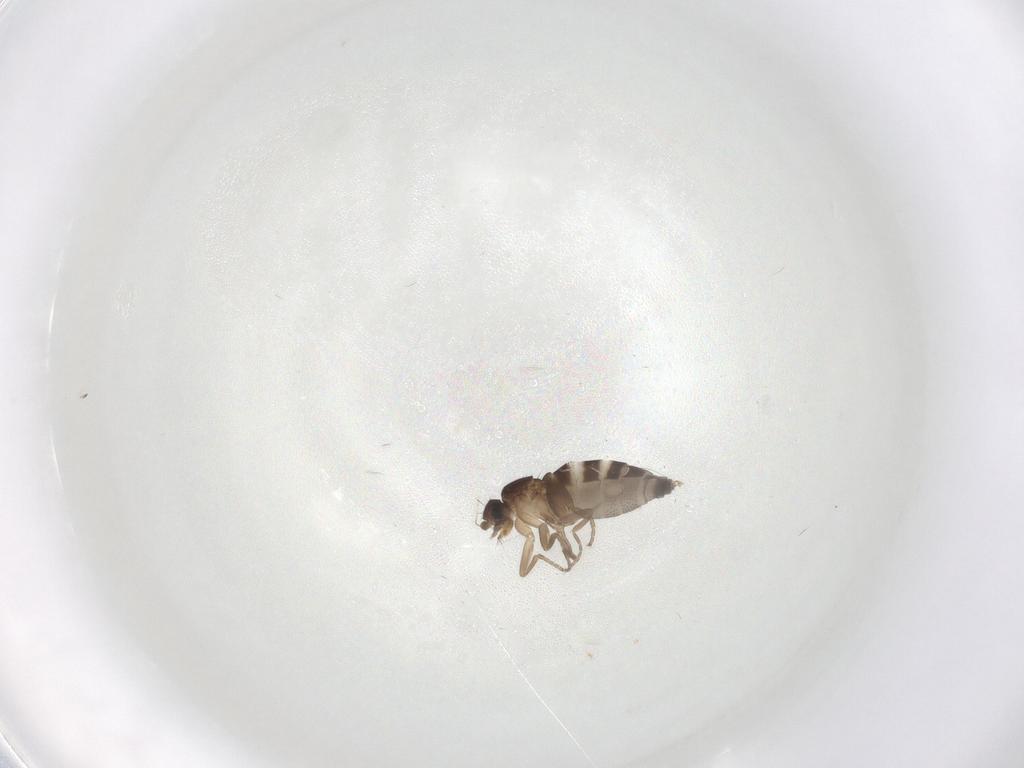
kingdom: Animalia
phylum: Arthropoda
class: Insecta
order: Diptera
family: Phoridae
